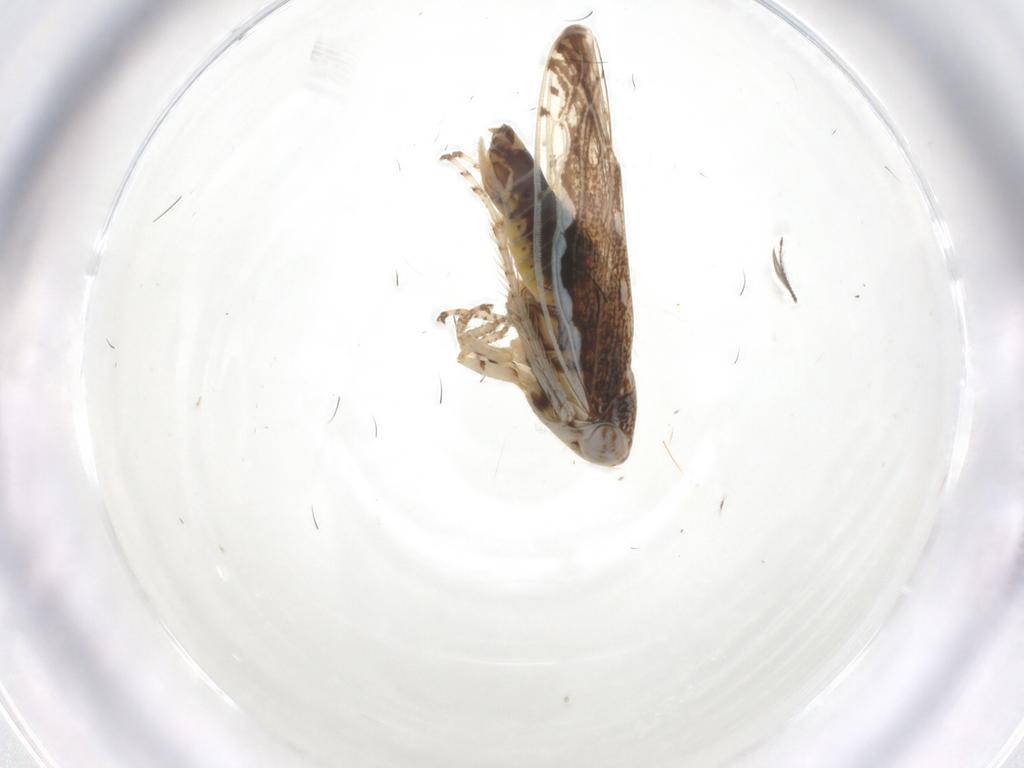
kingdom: Animalia
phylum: Arthropoda
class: Insecta
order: Hemiptera
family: Cicadellidae
